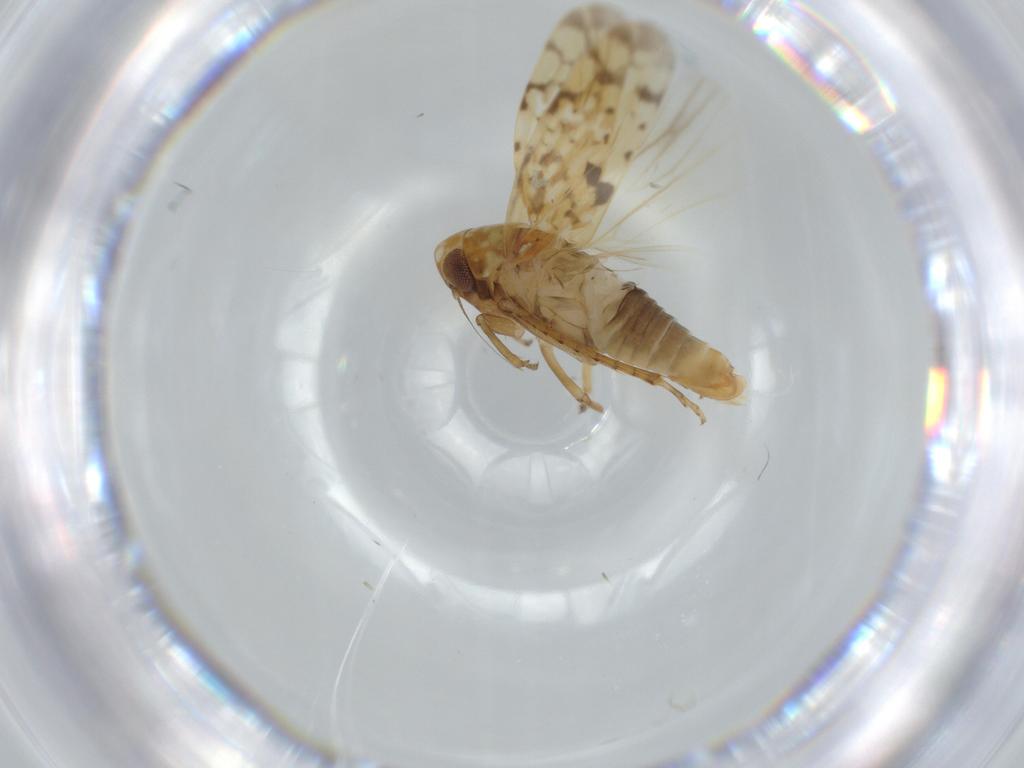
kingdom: Animalia
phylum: Arthropoda
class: Insecta
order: Hemiptera
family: Cicadellidae
